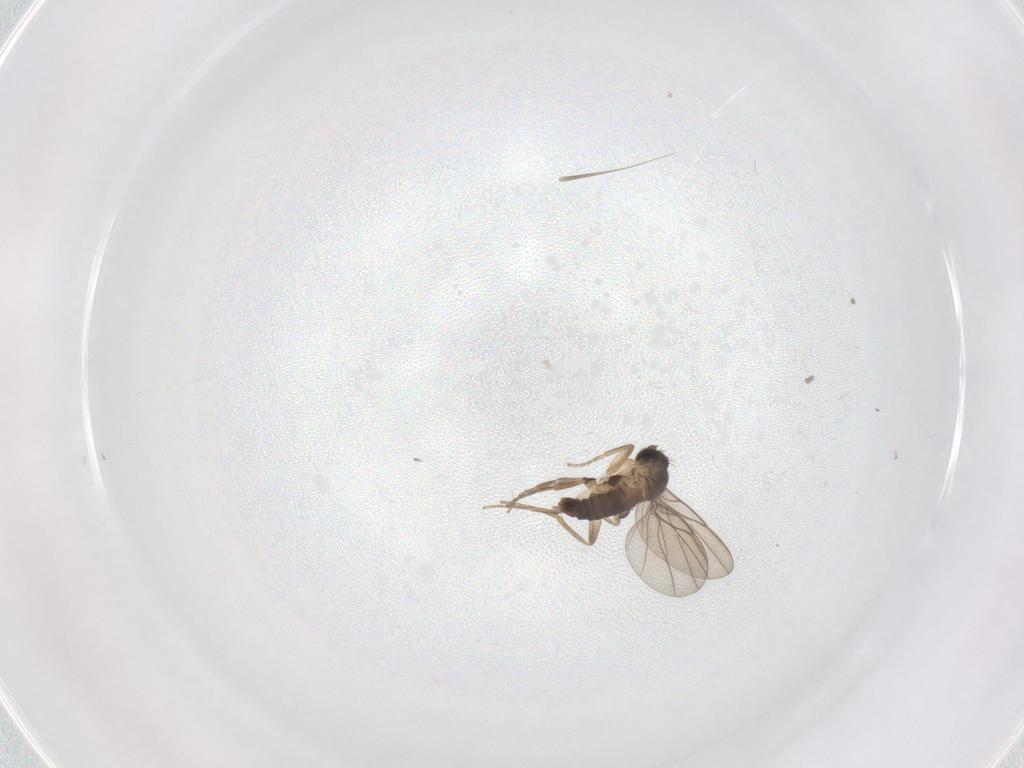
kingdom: Animalia
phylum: Arthropoda
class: Insecta
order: Diptera
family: Phoridae
